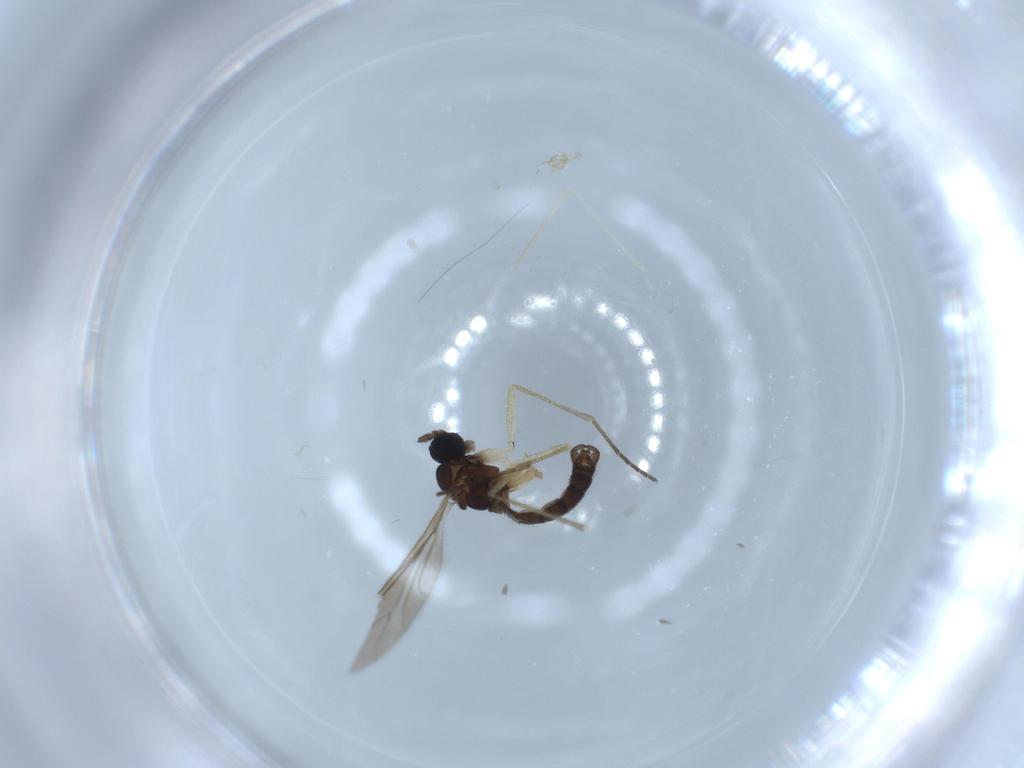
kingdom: Animalia
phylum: Arthropoda
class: Insecta
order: Diptera
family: Sciaridae
